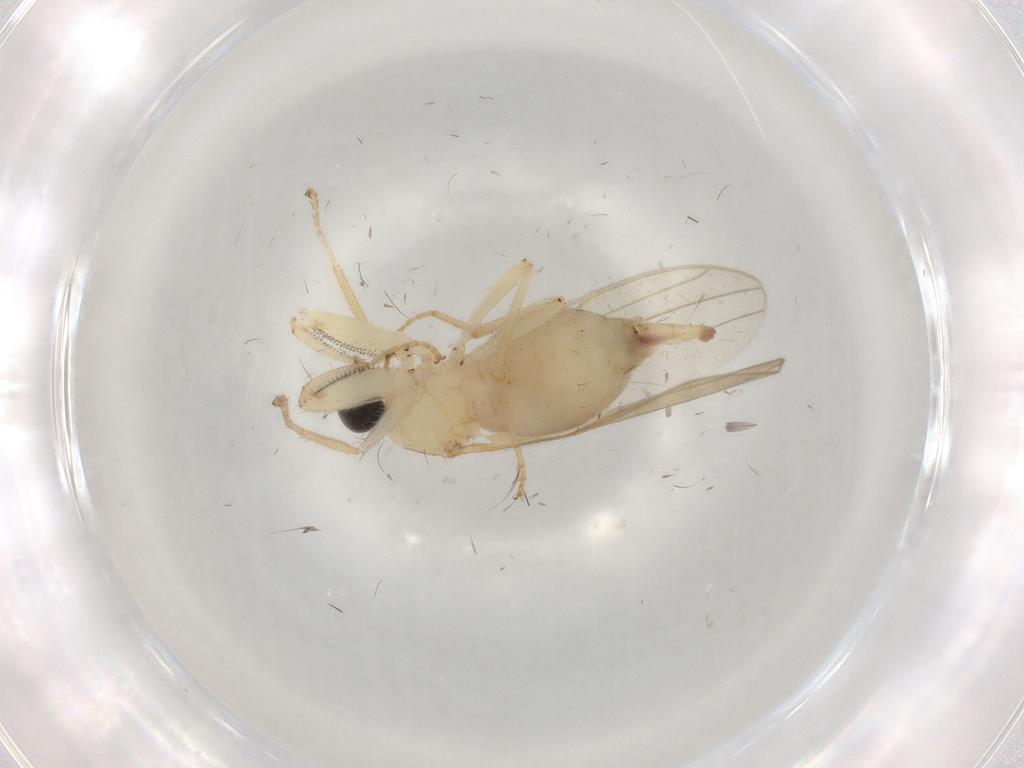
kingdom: Animalia
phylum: Arthropoda
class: Insecta
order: Diptera
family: Hybotidae
